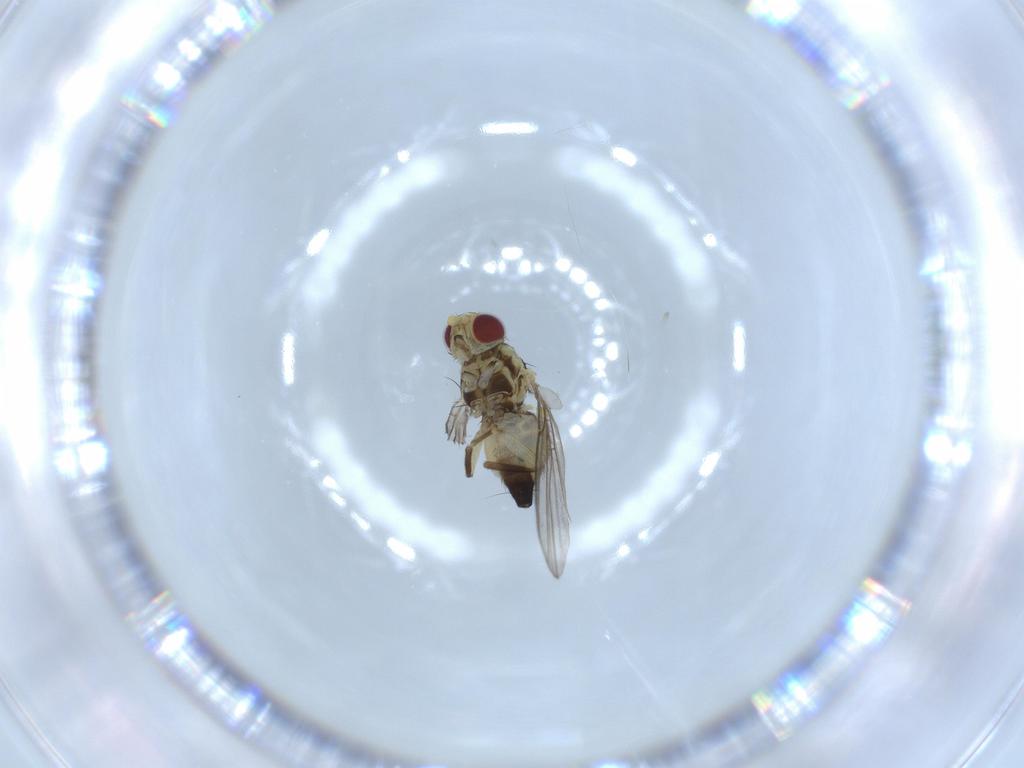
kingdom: Animalia
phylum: Arthropoda
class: Insecta
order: Diptera
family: Agromyzidae
